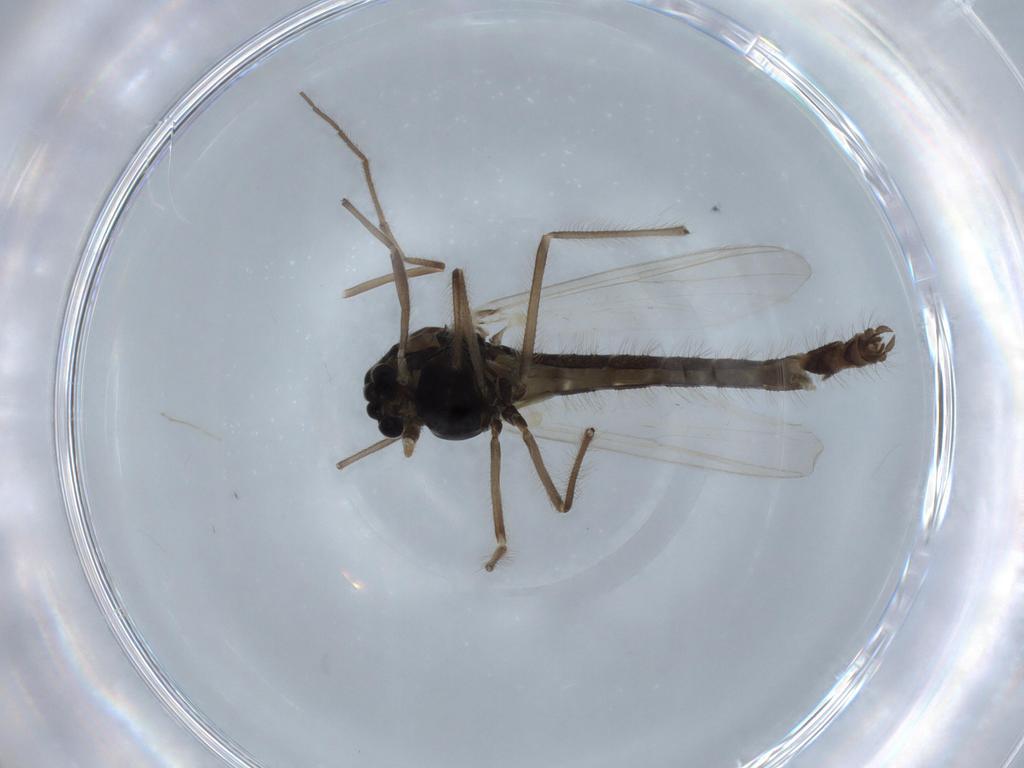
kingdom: Animalia
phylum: Arthropoda
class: Insecta
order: Diptera
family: Chironomidae
